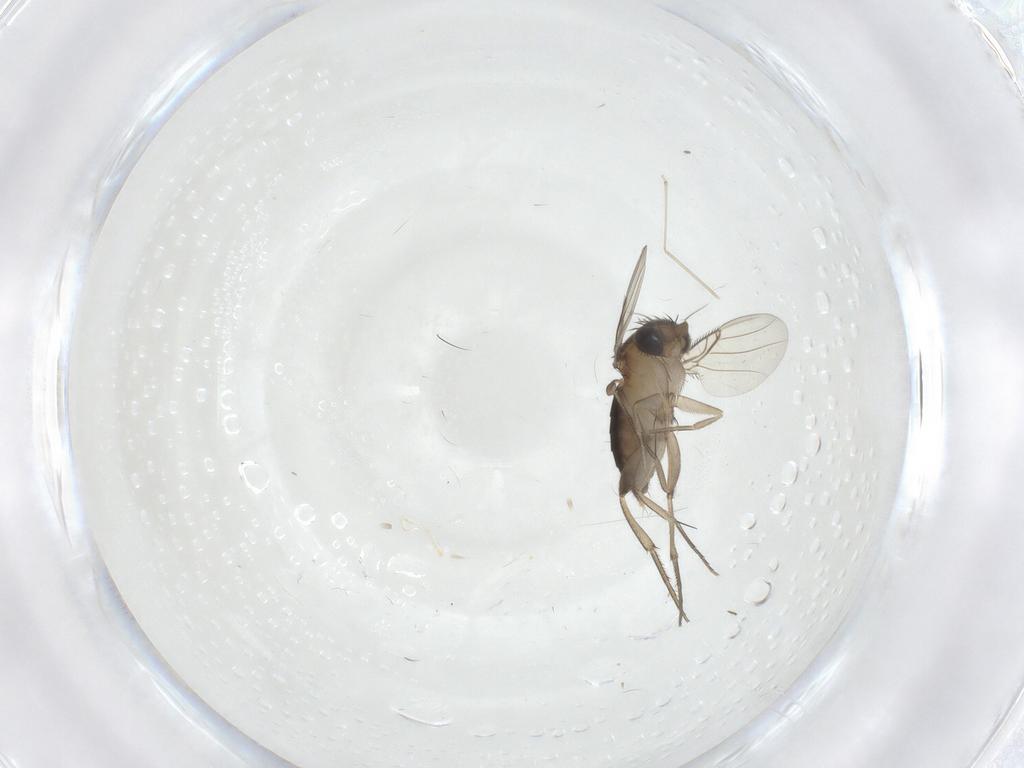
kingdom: Animalia
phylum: Arthropoda
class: Insecta
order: Diptera
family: Phoridae
